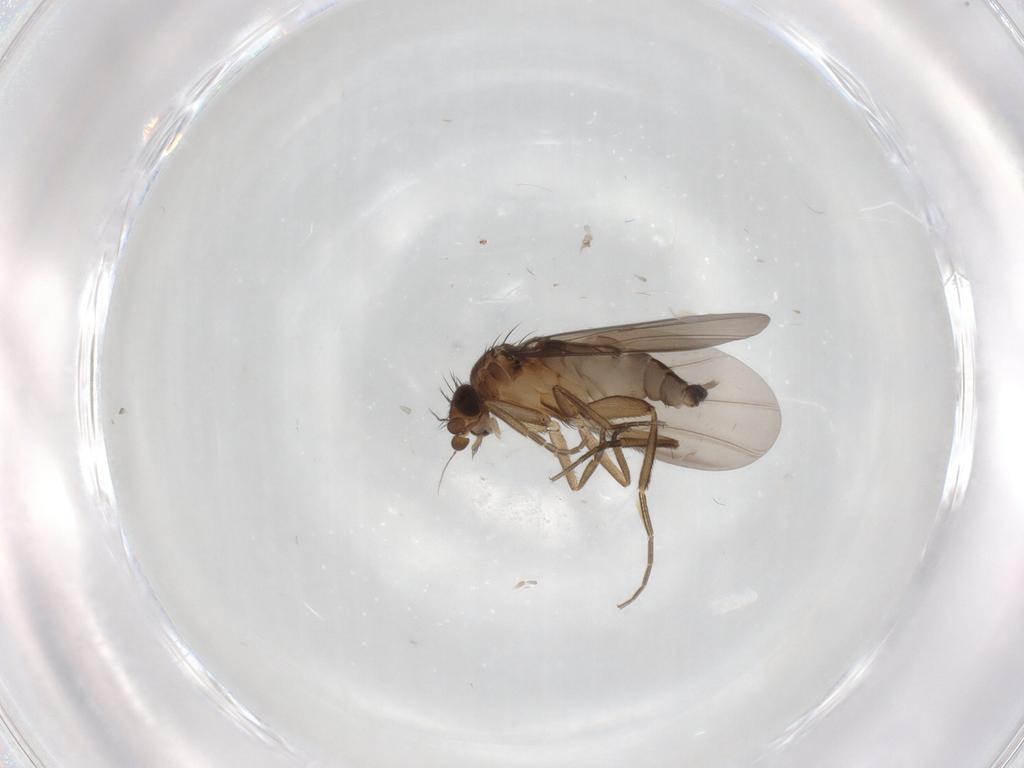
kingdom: Animalia
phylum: Arthropoda
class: Insecta
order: Diptera
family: Phoridae
